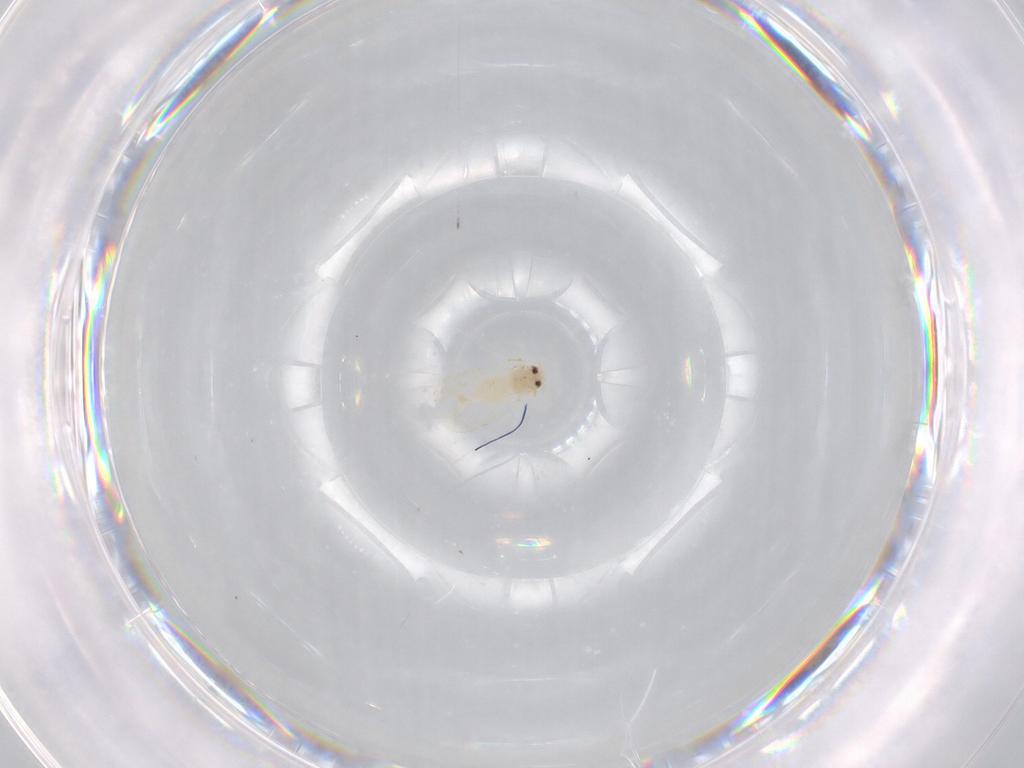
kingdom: Animalia
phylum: Arthropoda
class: Insecta
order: Hemiptera
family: Aleyrodidae
